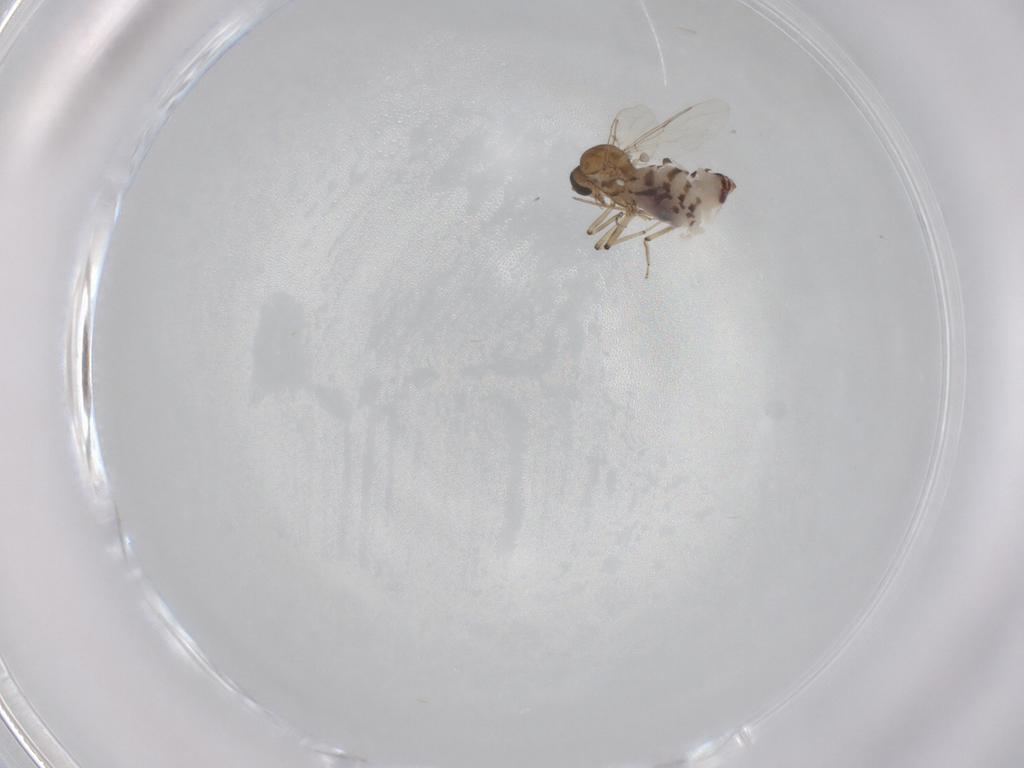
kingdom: Animalia
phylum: Arthropoda
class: Insecta
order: Diptera
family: Ceratopogonidae
